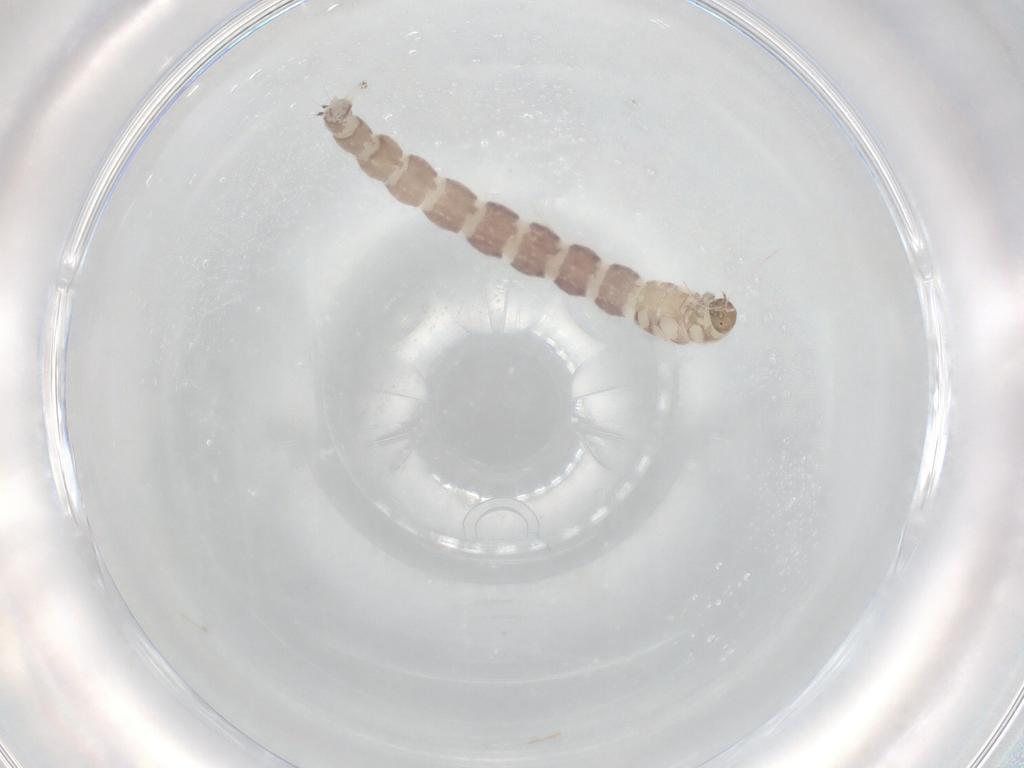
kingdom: Animalia
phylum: Arthropoda
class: Insecta
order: Diptera
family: Chironomidae
